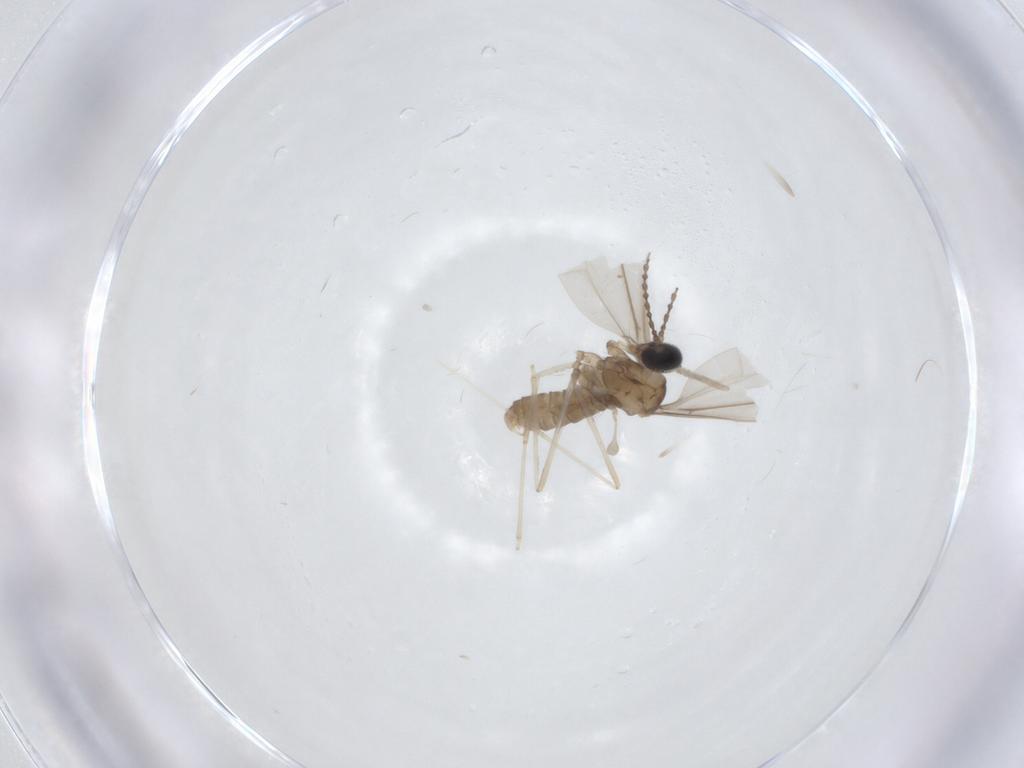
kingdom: Animalia
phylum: Arthropoda
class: Insecta
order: Diptera
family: Cecidomyiidae
